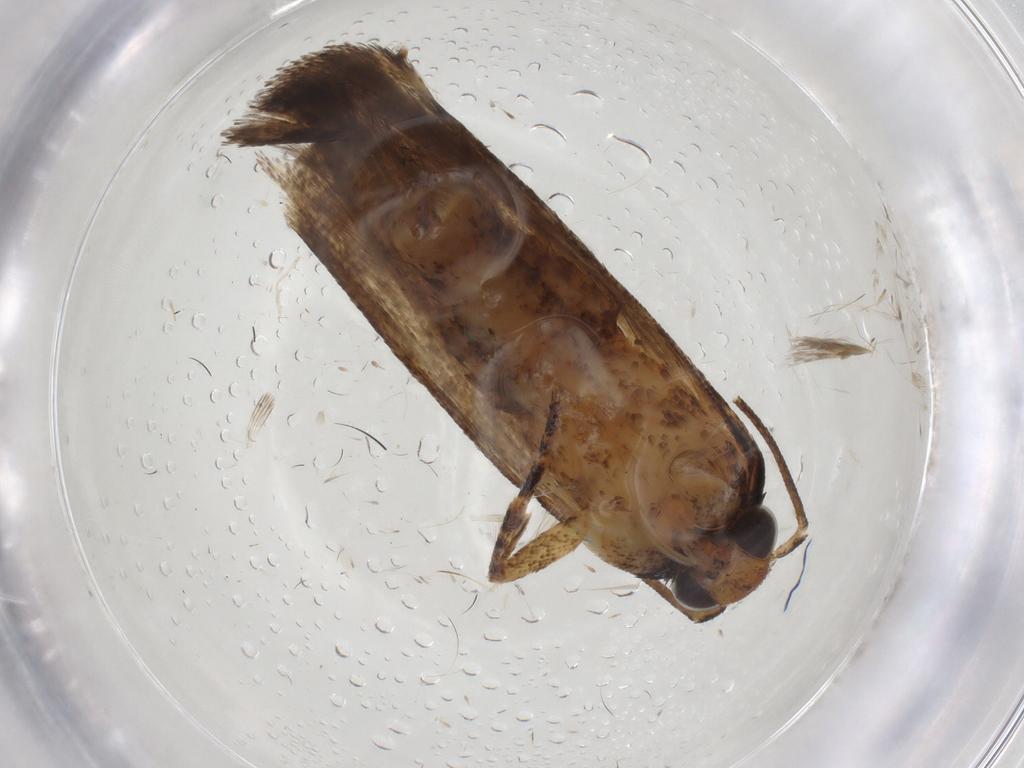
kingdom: Animalia
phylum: Arthropoda
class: Insecta
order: Lepidoptera
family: Gelechiidae
